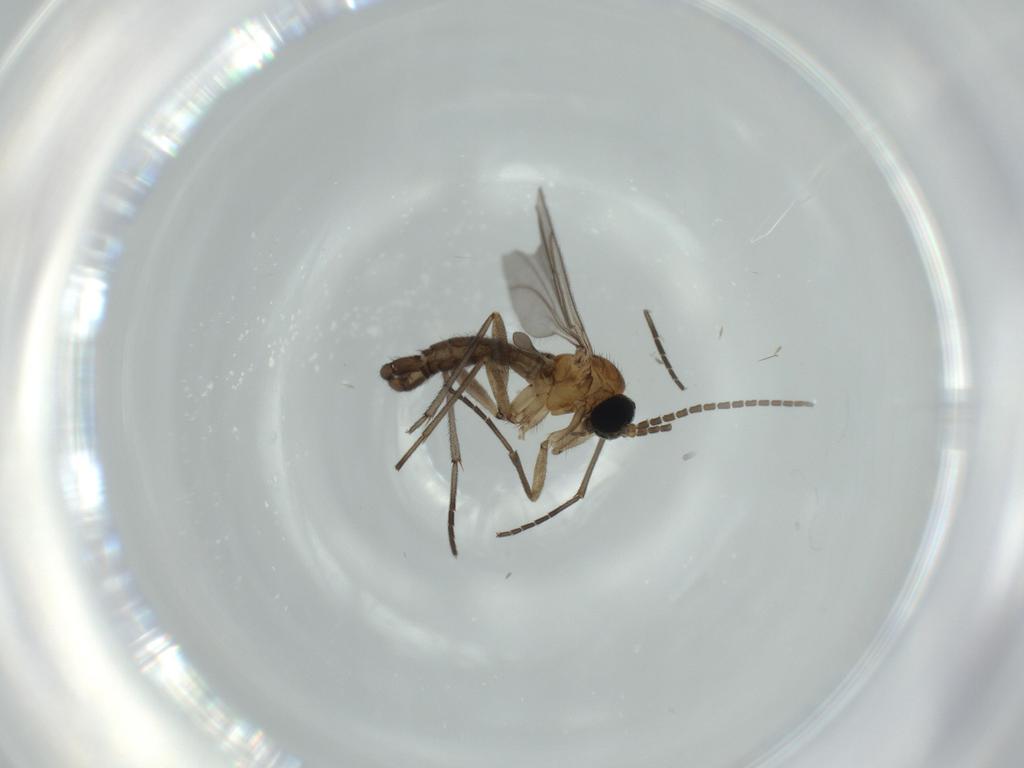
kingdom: Animalia
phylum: Arthropoda
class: Insecta
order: Diptera
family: Sciaridae
